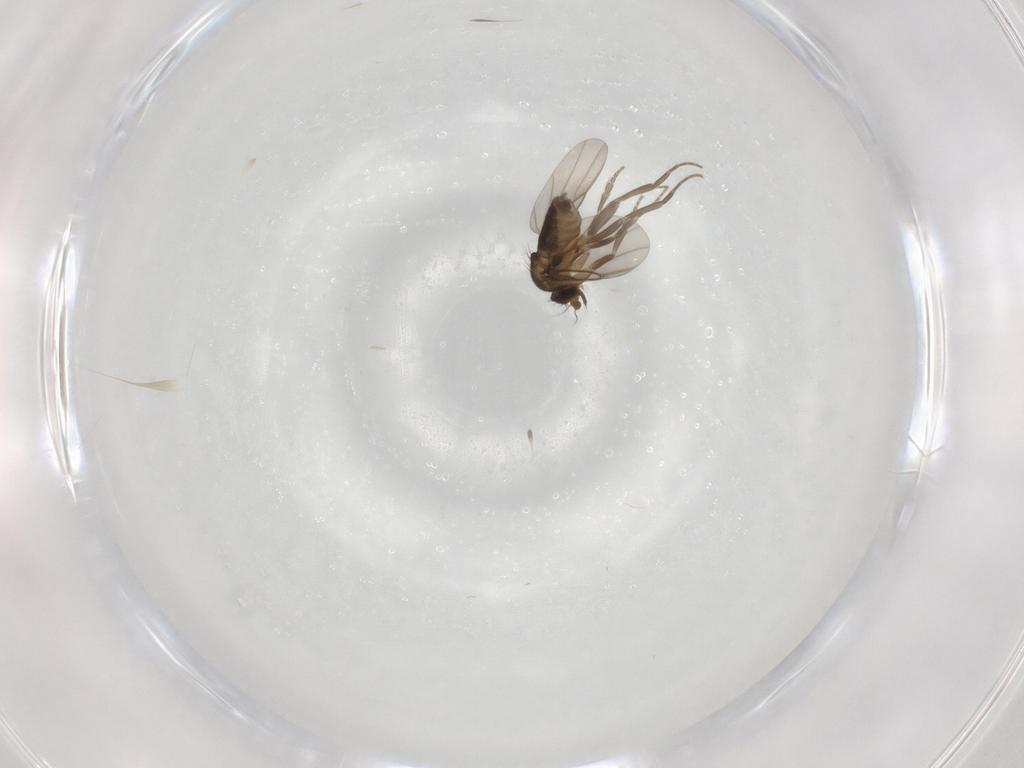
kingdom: Animalia
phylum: Arthropoda
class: Insecta
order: Diptera
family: Phoridae
